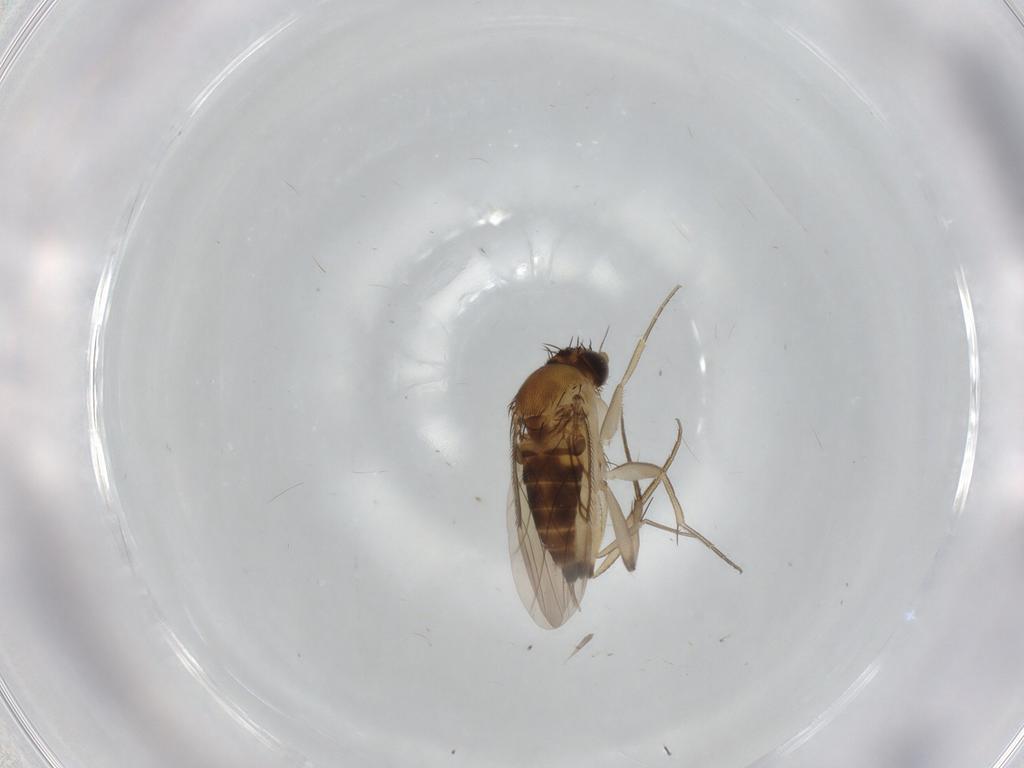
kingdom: Animalia
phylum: Arthropoda
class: Insecta
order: Diptera
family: Phoridae
